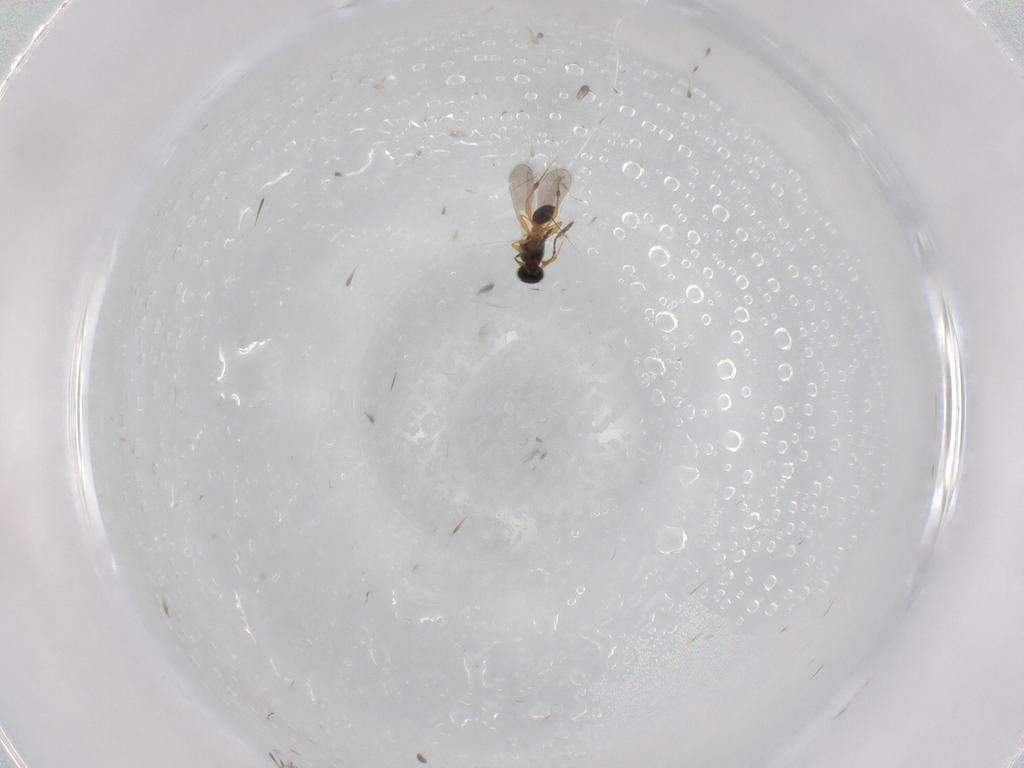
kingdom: Animalia
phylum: Arthropoda
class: Insecta
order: Hymenoptera
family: Platygastridae
